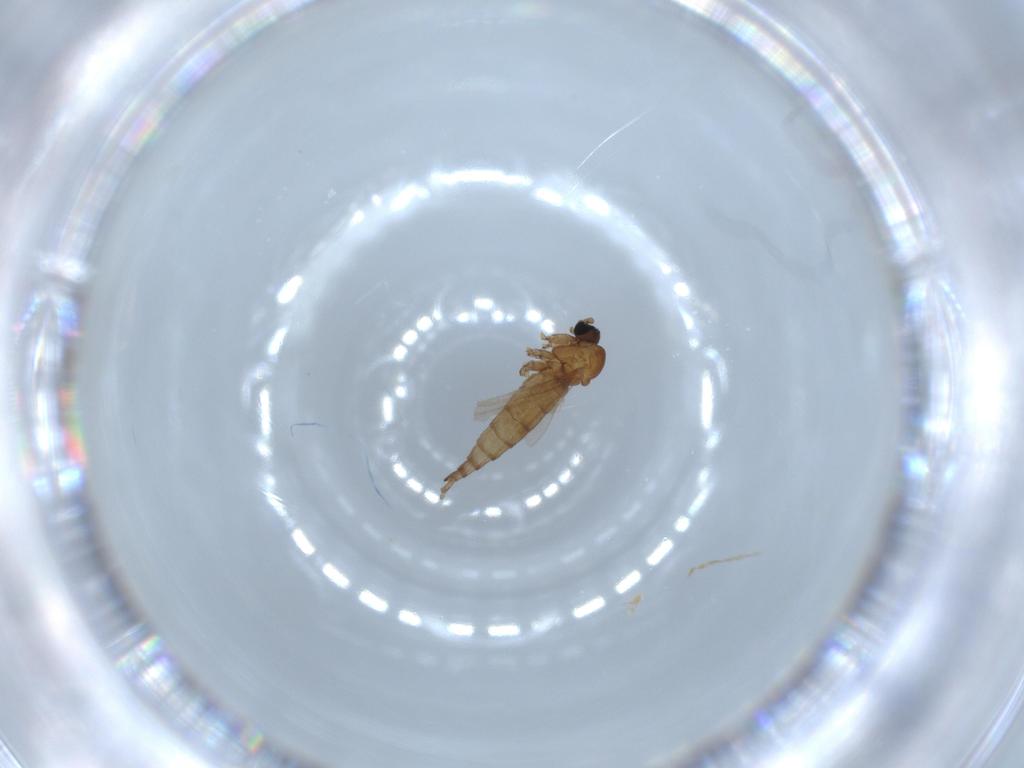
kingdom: Animalia
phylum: Arthropoda
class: Insecta
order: Diptera
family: Sciaridae
